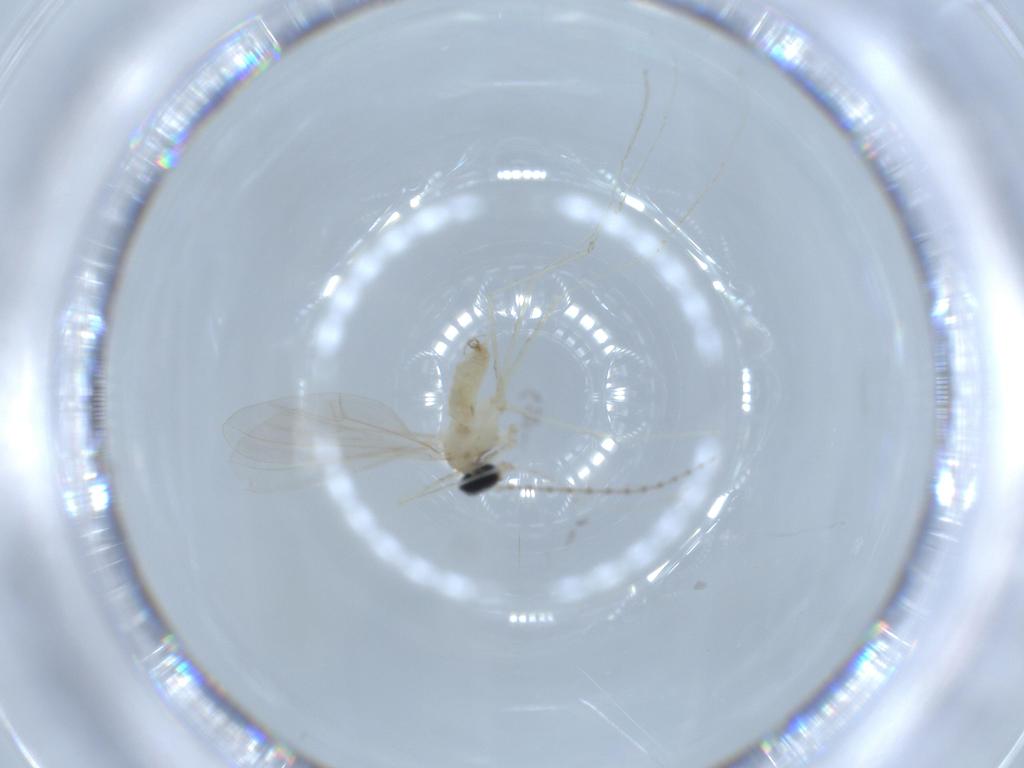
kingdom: Animalia
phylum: Arthropoda
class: Insecta
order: Diptera
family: Cecidomyiidae
